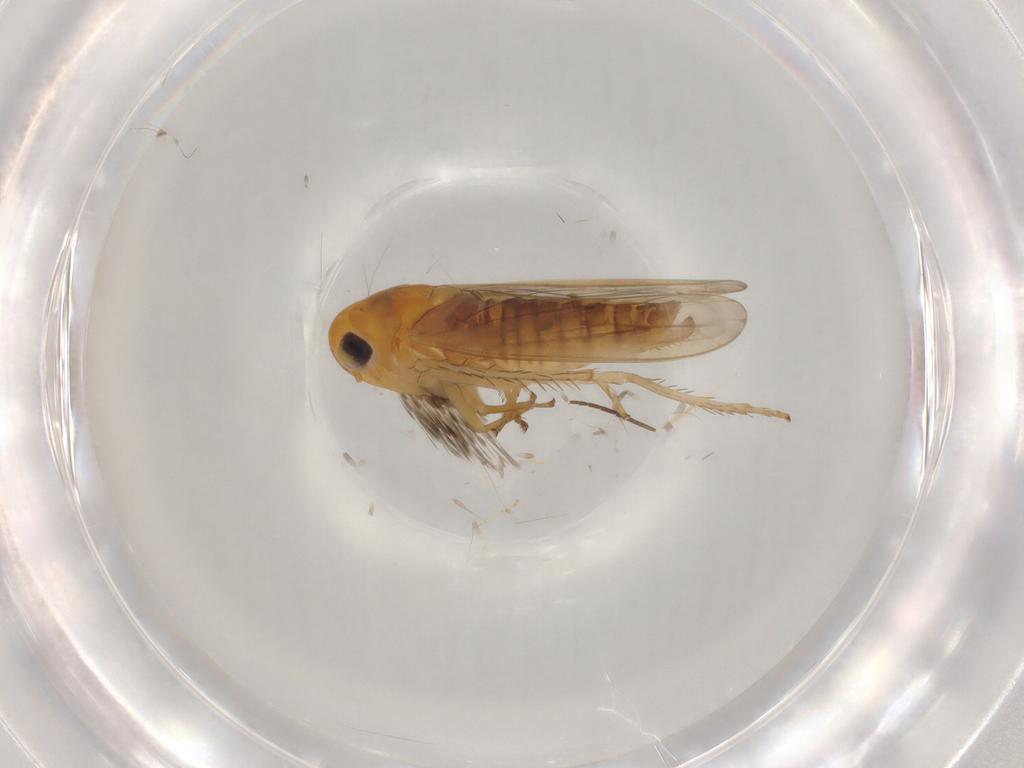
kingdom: Animalia
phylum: Arthropoda
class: Insecta
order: Hemiptera
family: Cicadellidae
